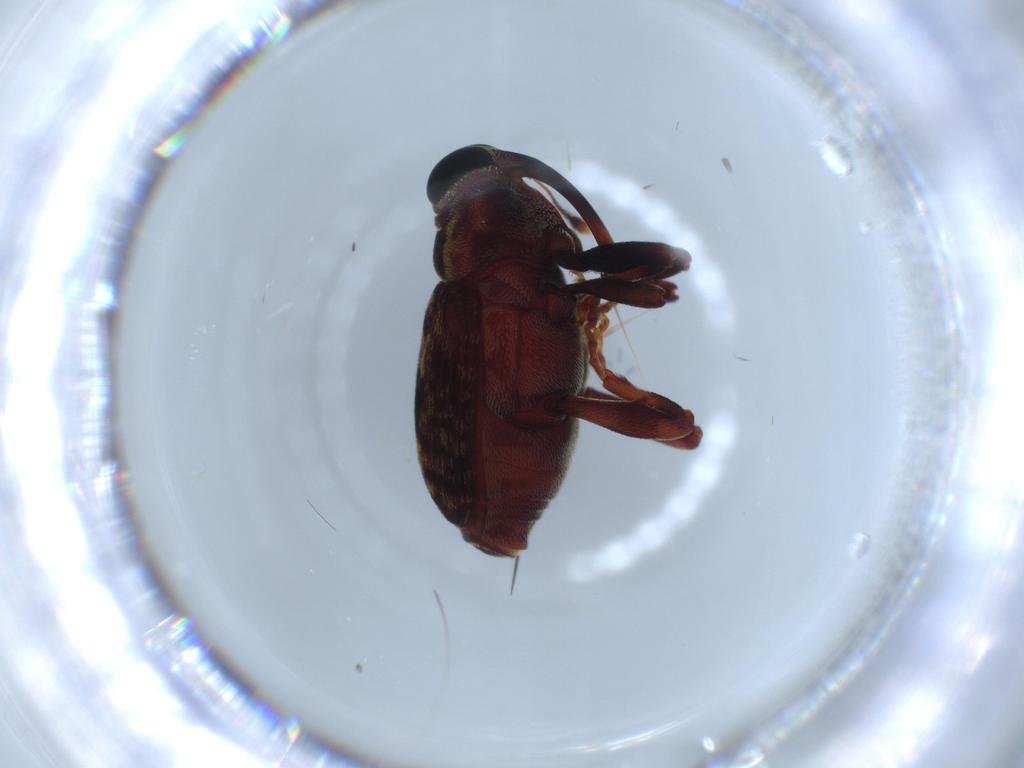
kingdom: Animalia
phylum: Arthropoda
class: Insecta
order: Coleoptera
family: Curculionidae
